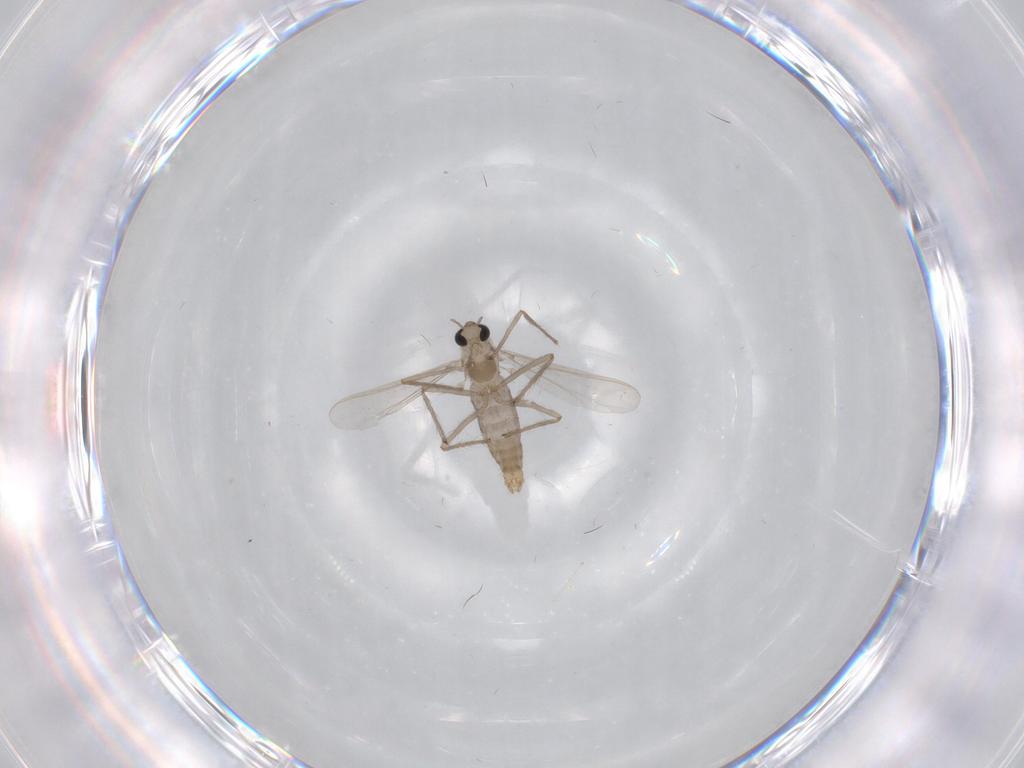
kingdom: Animalia
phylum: Arthropoda
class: Insecta
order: Diptera
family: Chironomidae
